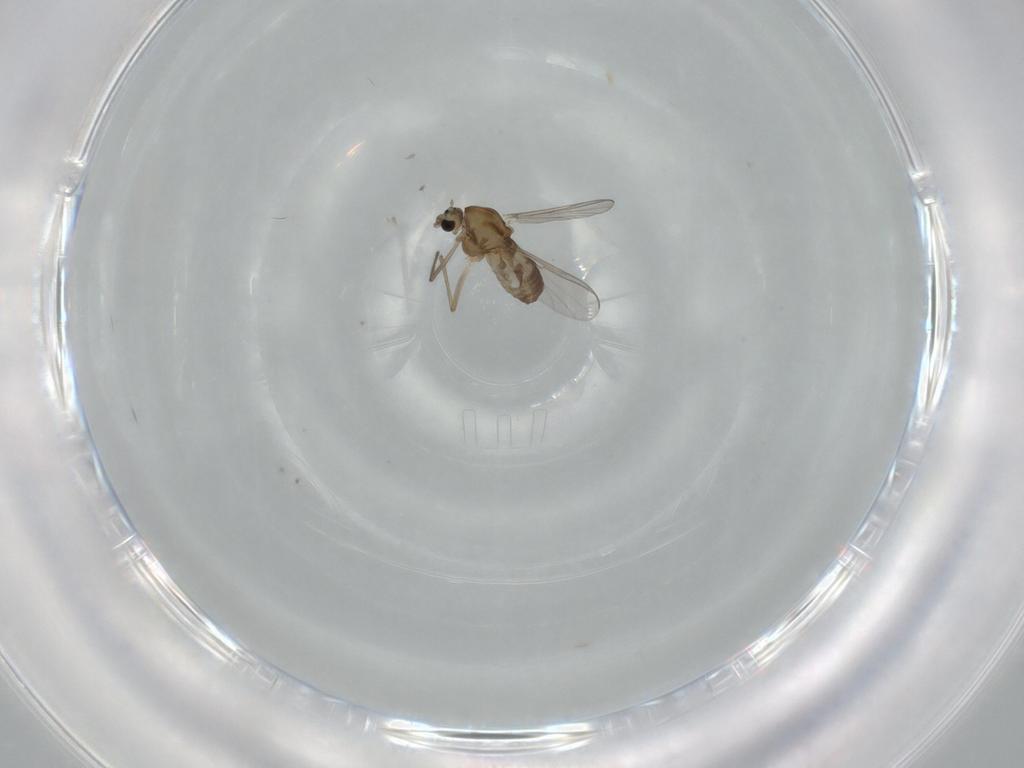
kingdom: Animalia
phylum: Arthropoda
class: Insecta
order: Diptera
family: Chironomidae
